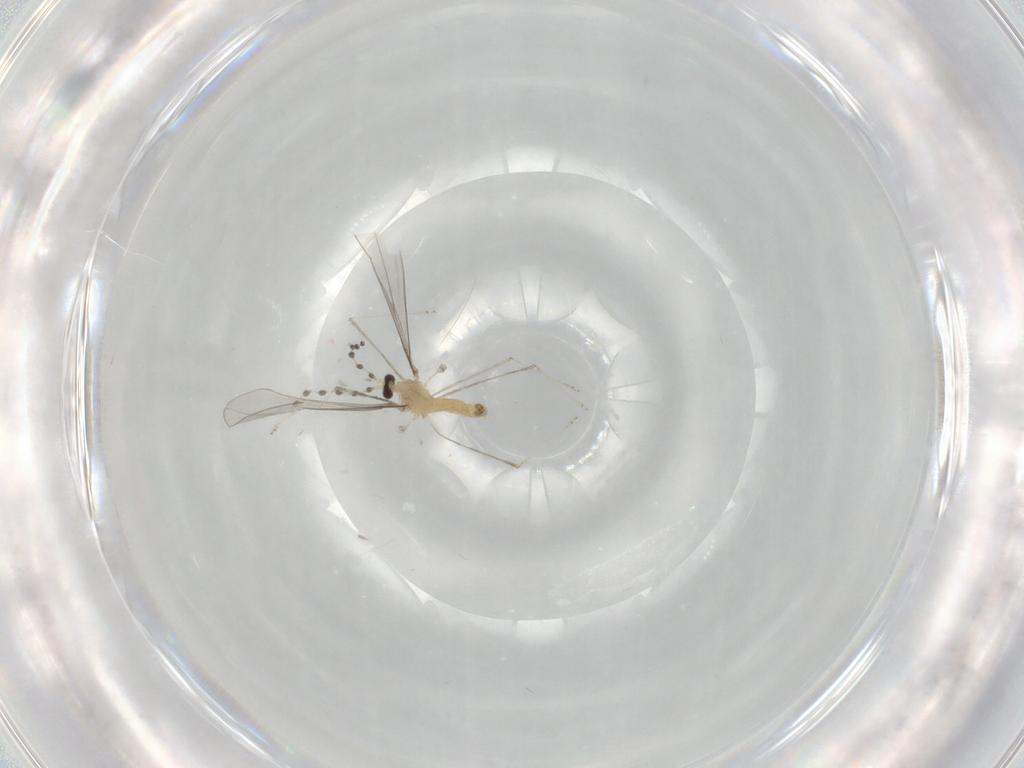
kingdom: Animalia
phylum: Arthropoda
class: Insecta
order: Diptera
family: Cecidomyiidae
